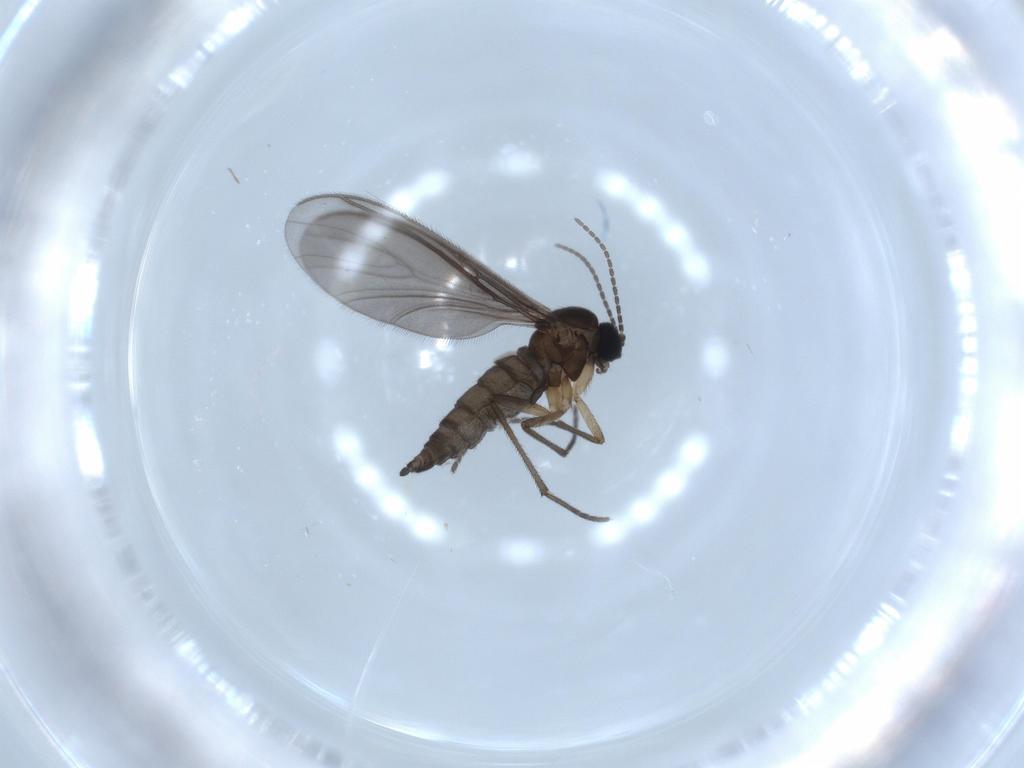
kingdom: Animalia
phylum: Arthropoda
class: Insecta
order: Diptera
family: Sciaridae
